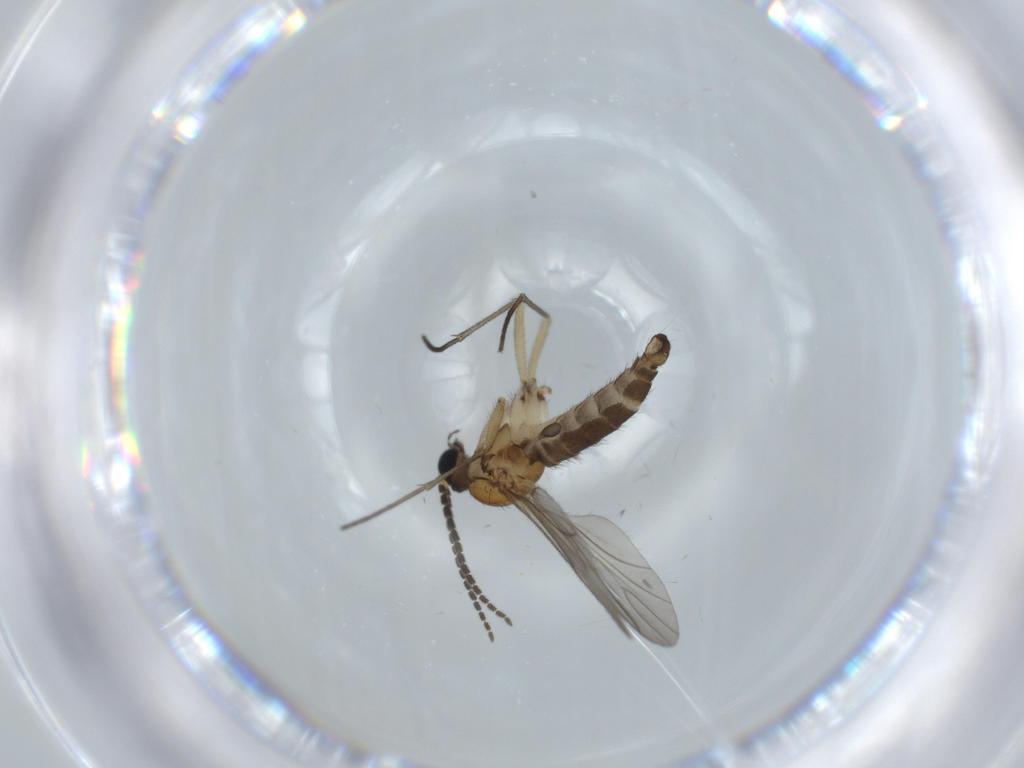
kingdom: Animalia
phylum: Arthropoda
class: Insecta
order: Diptera
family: Sciaridae
